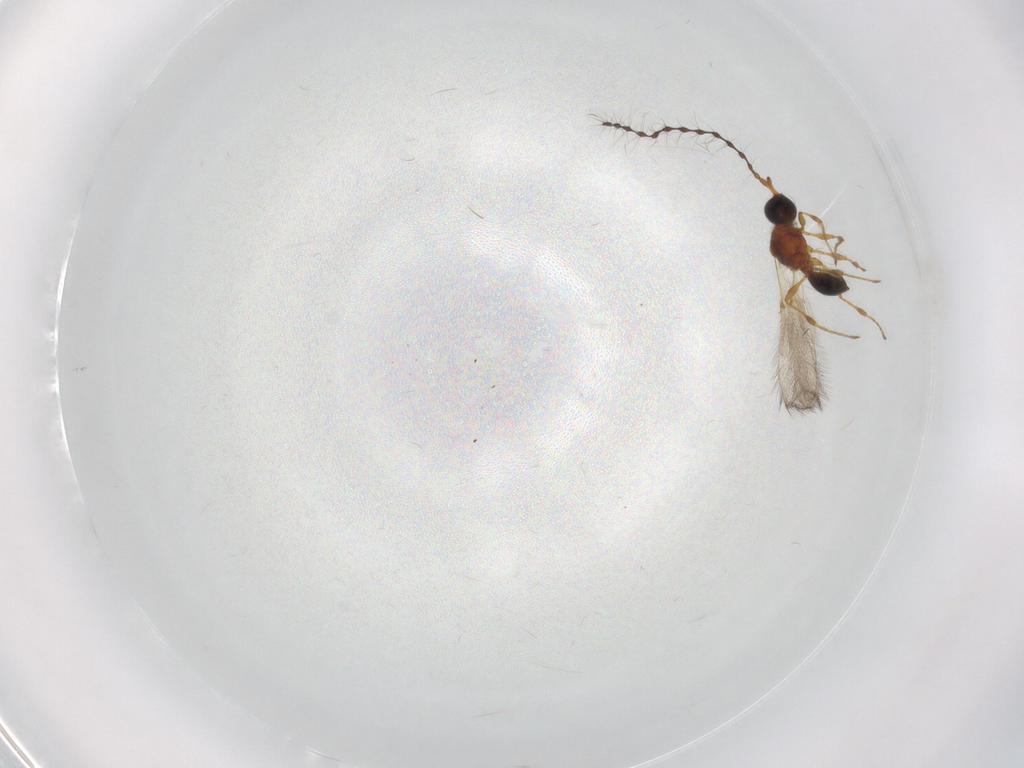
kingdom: Animalia
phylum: Arthropoda
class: Insecta
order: Hymenoptera
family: Diapriidae
